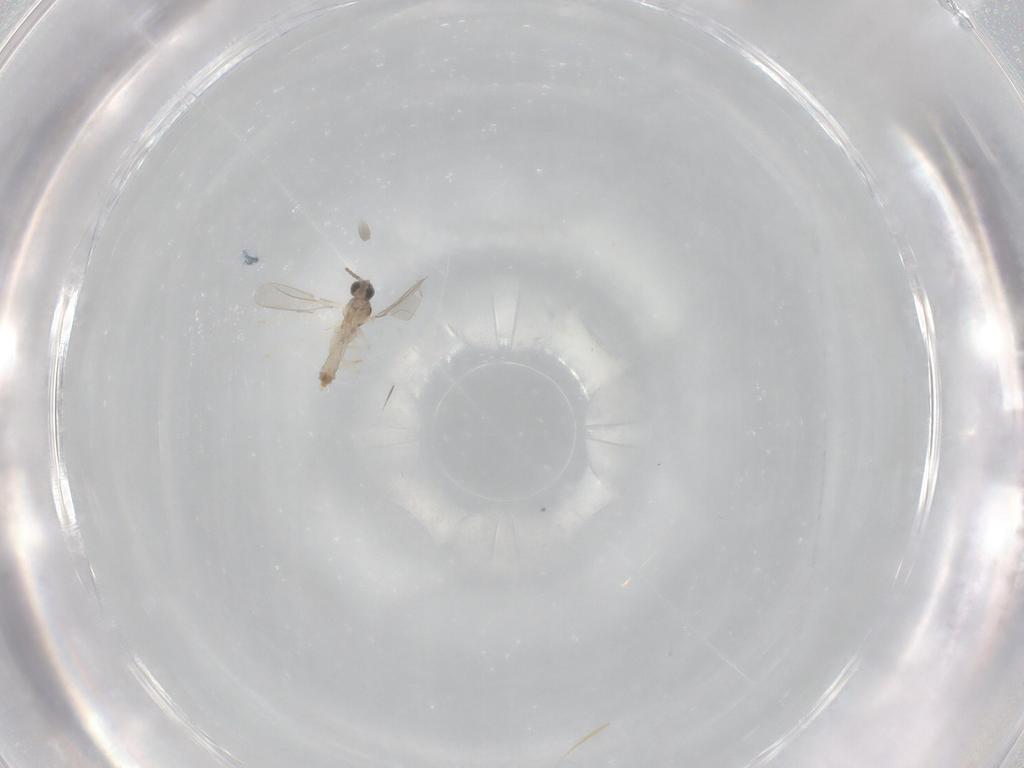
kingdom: Animalia
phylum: Arthropoda
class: Insecta
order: Diptera
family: Cecidomyiidae
